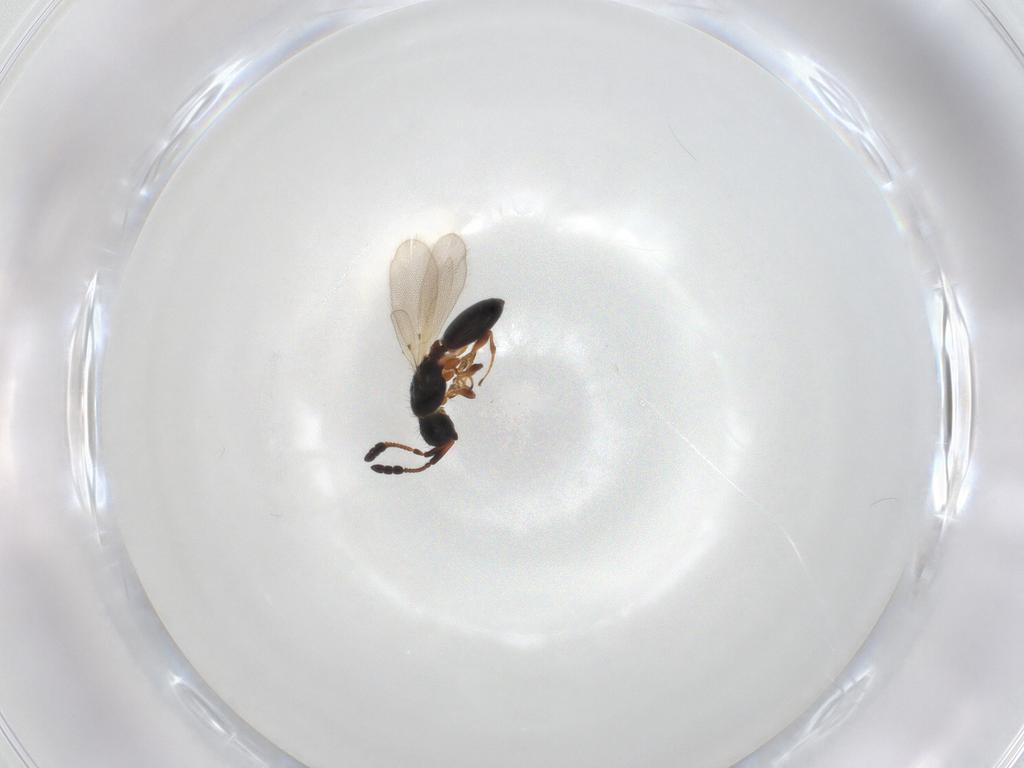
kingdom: Animalia
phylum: Arthropoda
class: Insecta
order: Hymenoptera
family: Diapriidae
